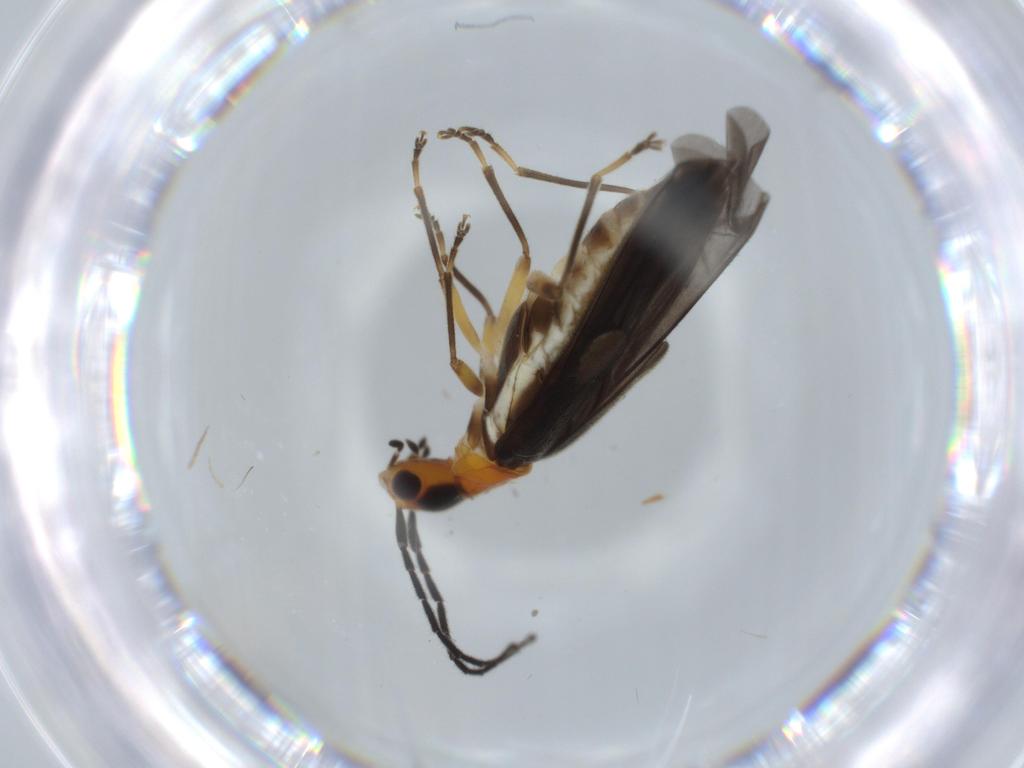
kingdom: Animalia
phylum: Arthropoda
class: Insecta
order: Coleoptera
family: Cantharidae
